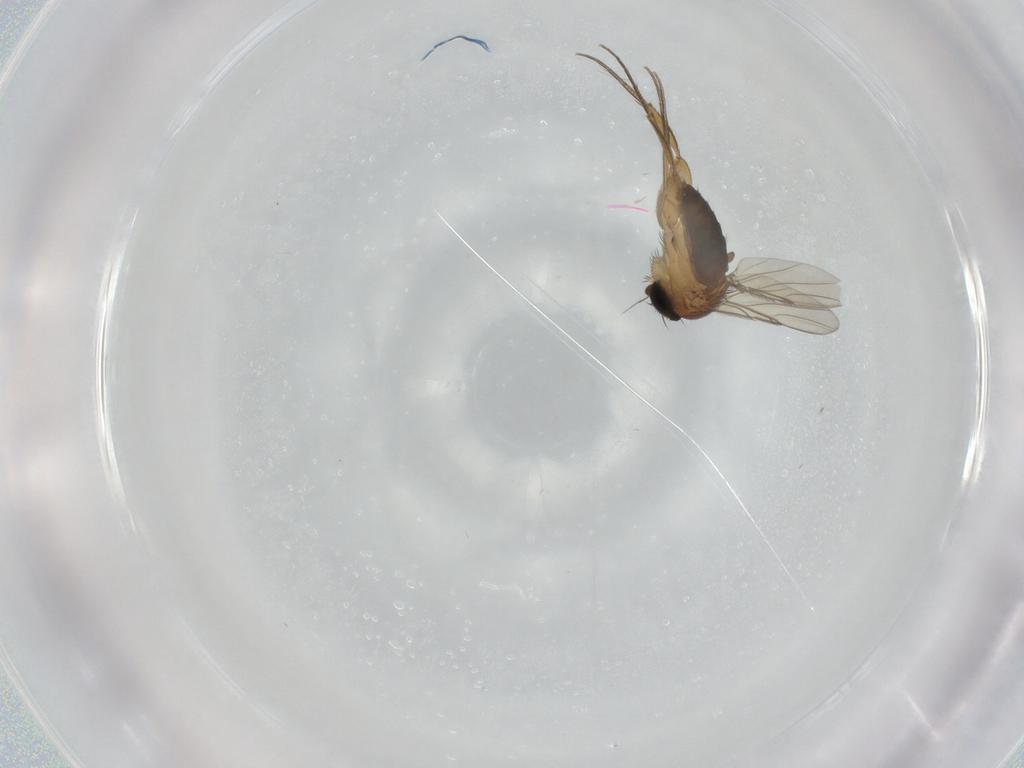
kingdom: Animalia
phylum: Arthropoda
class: Insecta
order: Diptera
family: Phoridae
